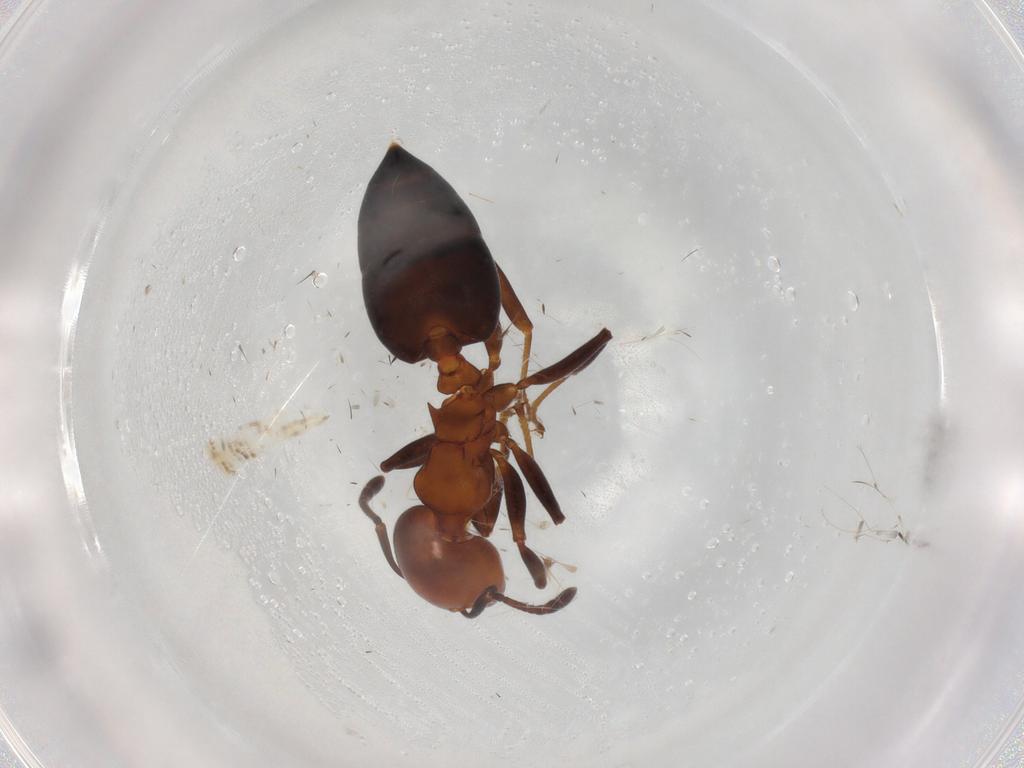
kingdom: Animalia
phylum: Arthropoda
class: Insecta
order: Hymenoptera
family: Formicidae
